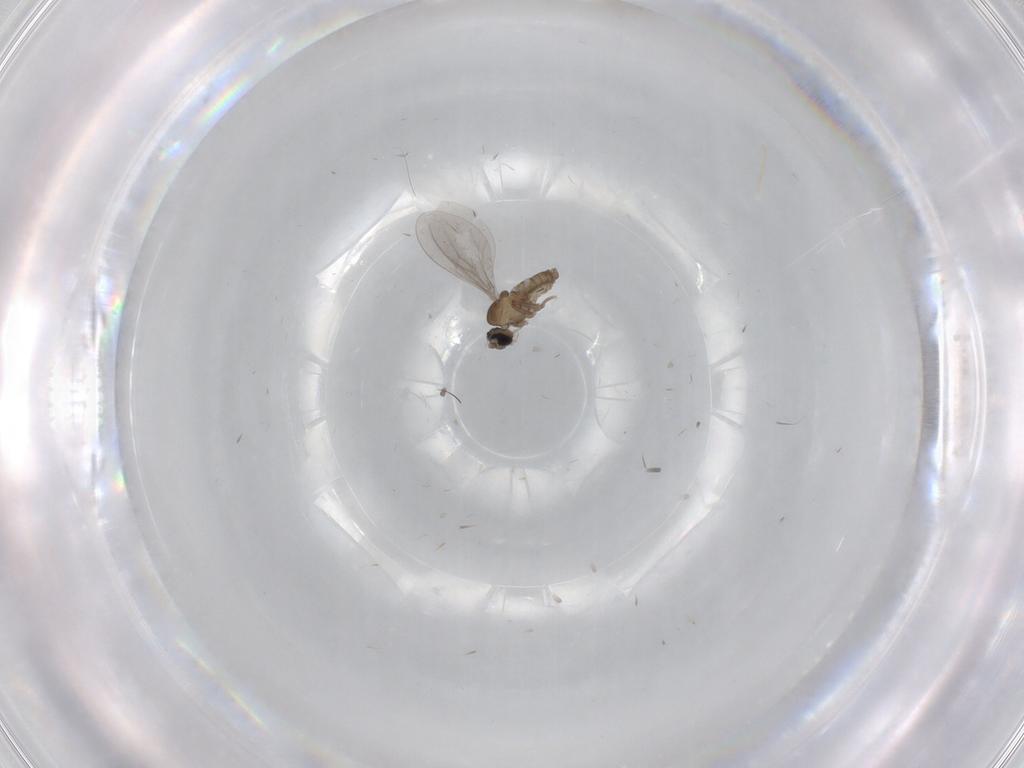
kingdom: Animalia
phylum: Arthropoda
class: Insecta
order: Diptera
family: Cecidomyiidae
